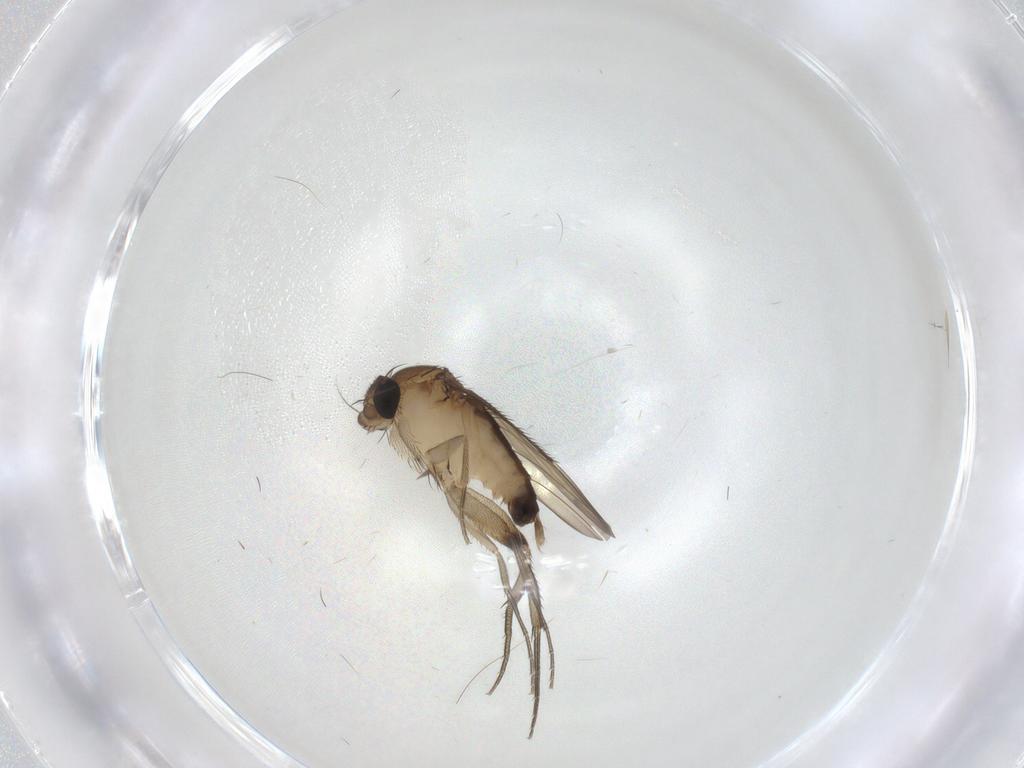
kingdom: Animalia
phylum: Arthropoda
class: Insecta
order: Diptera
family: Phoridae
